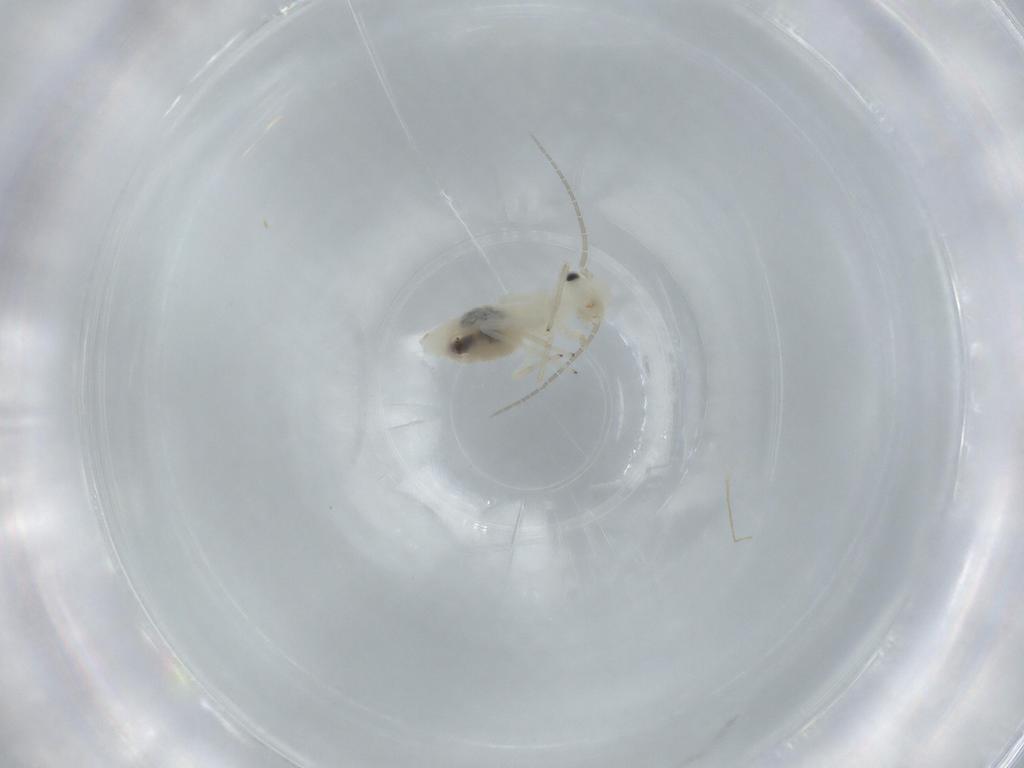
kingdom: Animalia
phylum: Arthropoda
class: Insecta
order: Psocodea
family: Caeciliusidae
